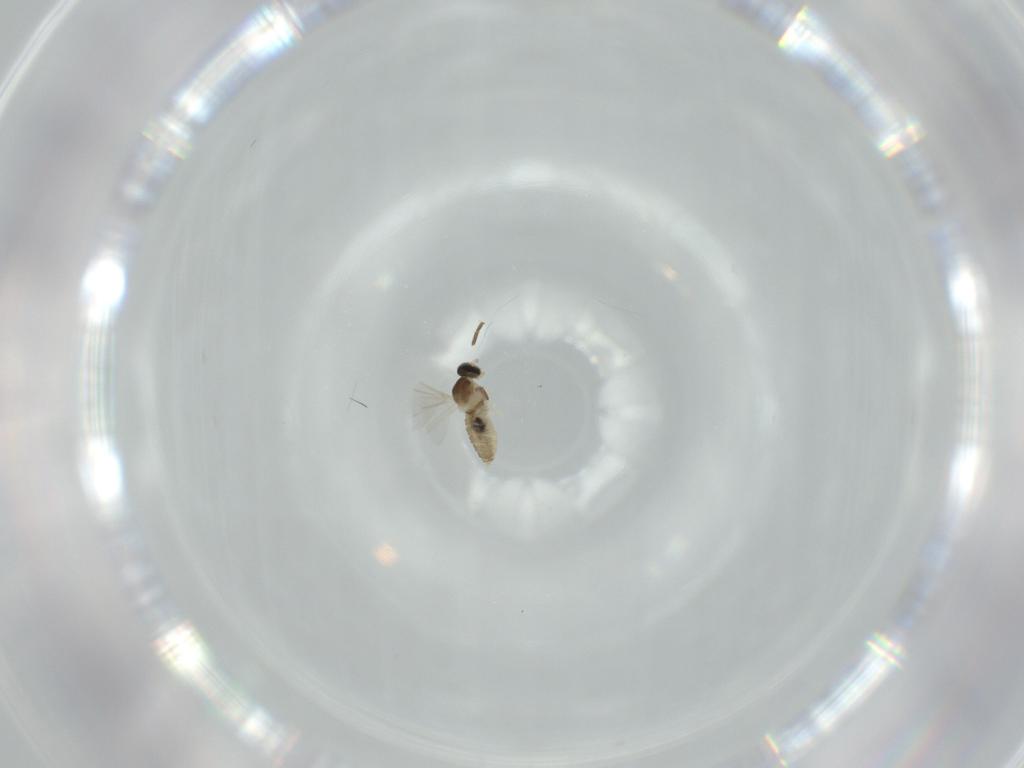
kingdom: Animalia
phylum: Arthropoda
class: Insecta
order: Diptera
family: Cecidomyiidae
